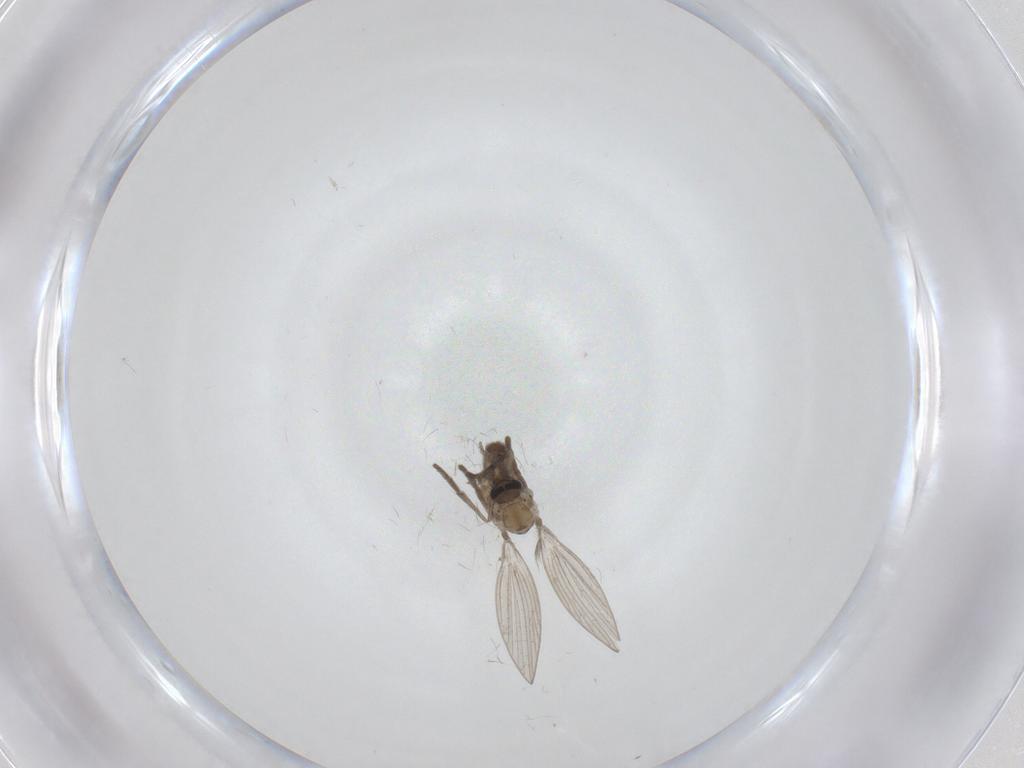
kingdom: Animalia
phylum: Arthropoda
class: Insecta
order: Diptera
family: Psychodidae
